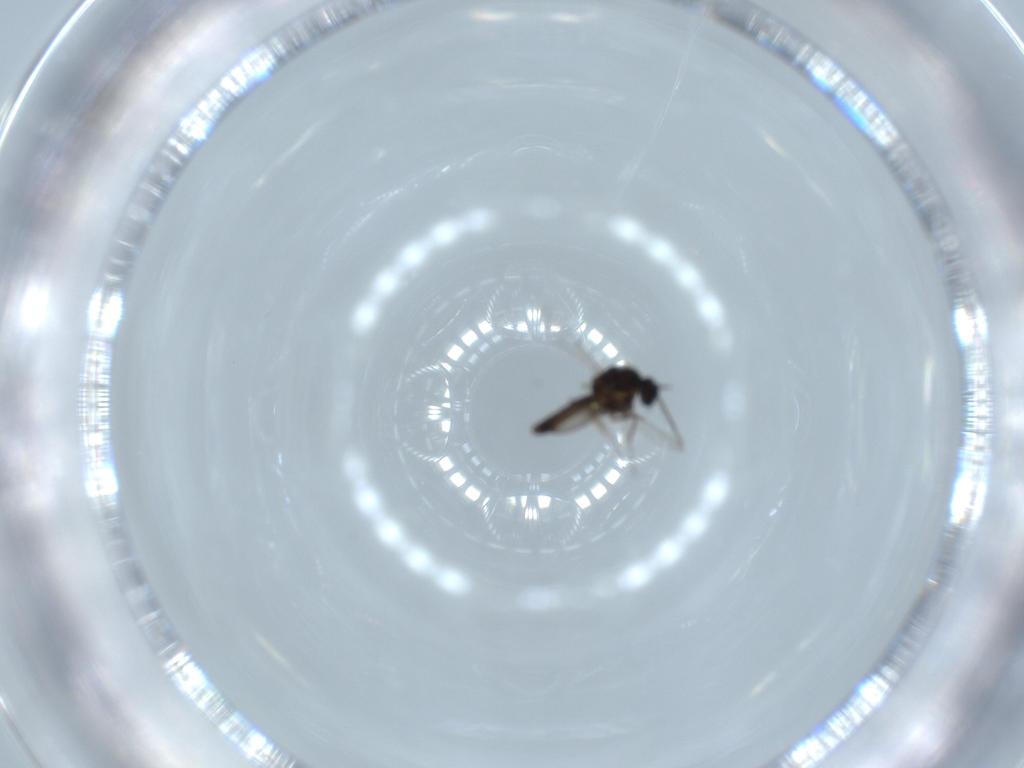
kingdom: Animalia
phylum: Arthropoda
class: Insecta
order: Diptera
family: Ceratopogonidae
